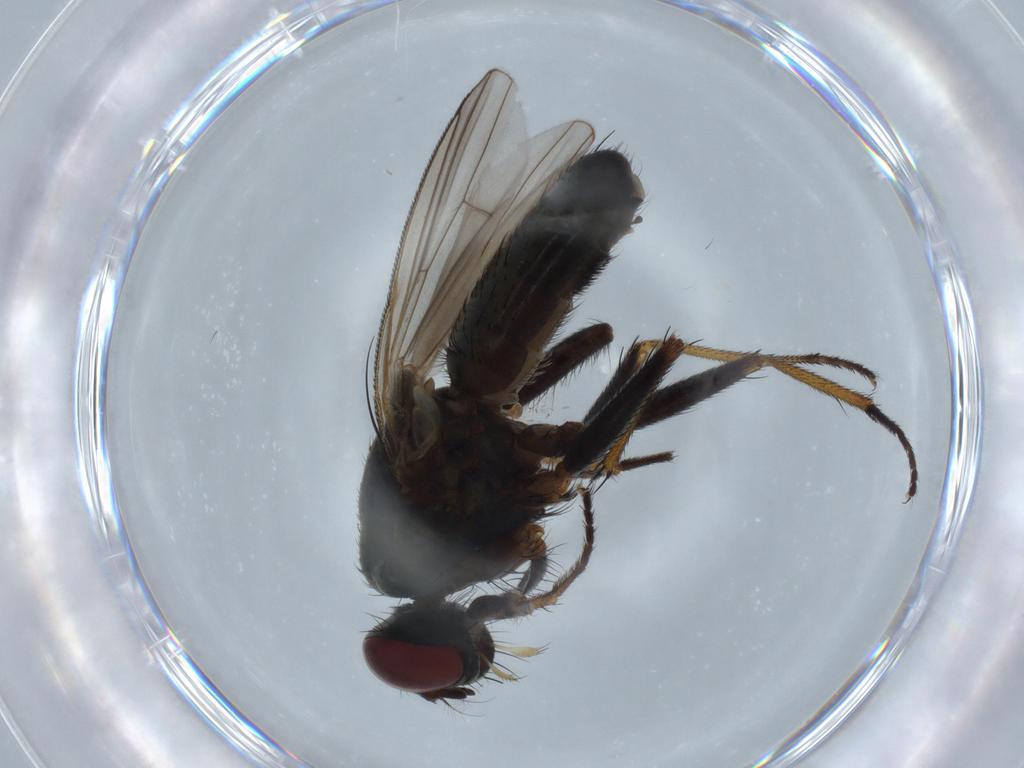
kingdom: Animalia
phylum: Arthropoda
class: Insecta
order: Diptera
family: Muscidae
